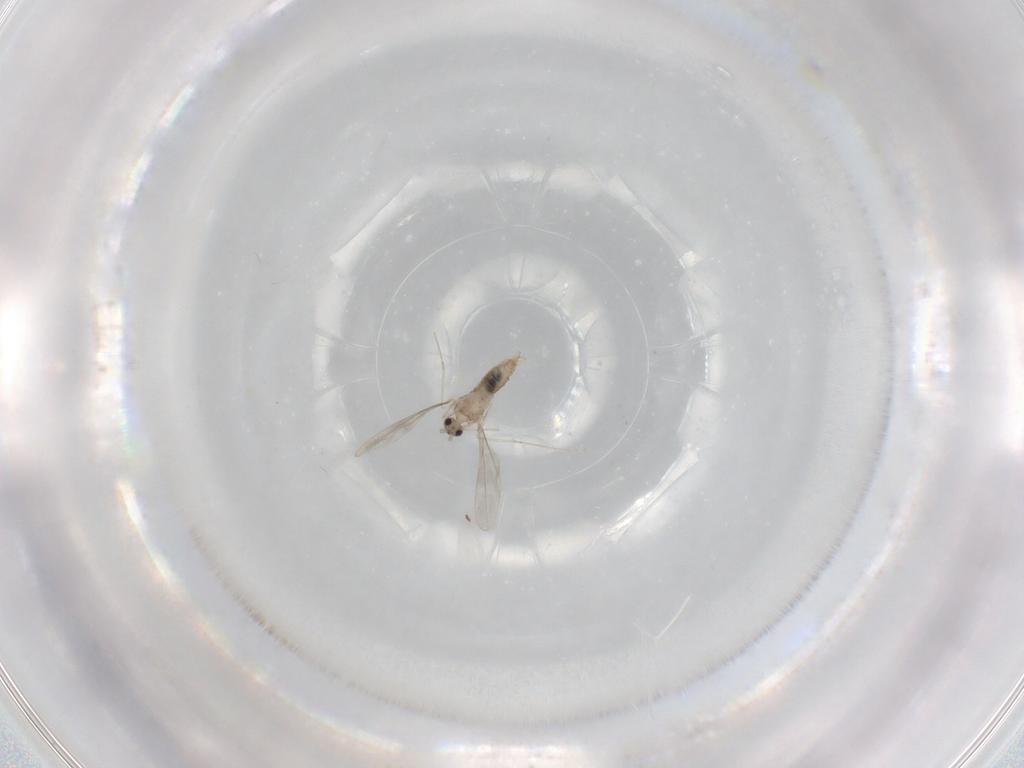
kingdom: Animalia
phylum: Arthropoda
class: Insecta
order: Diptera
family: Cecidomyiidae
